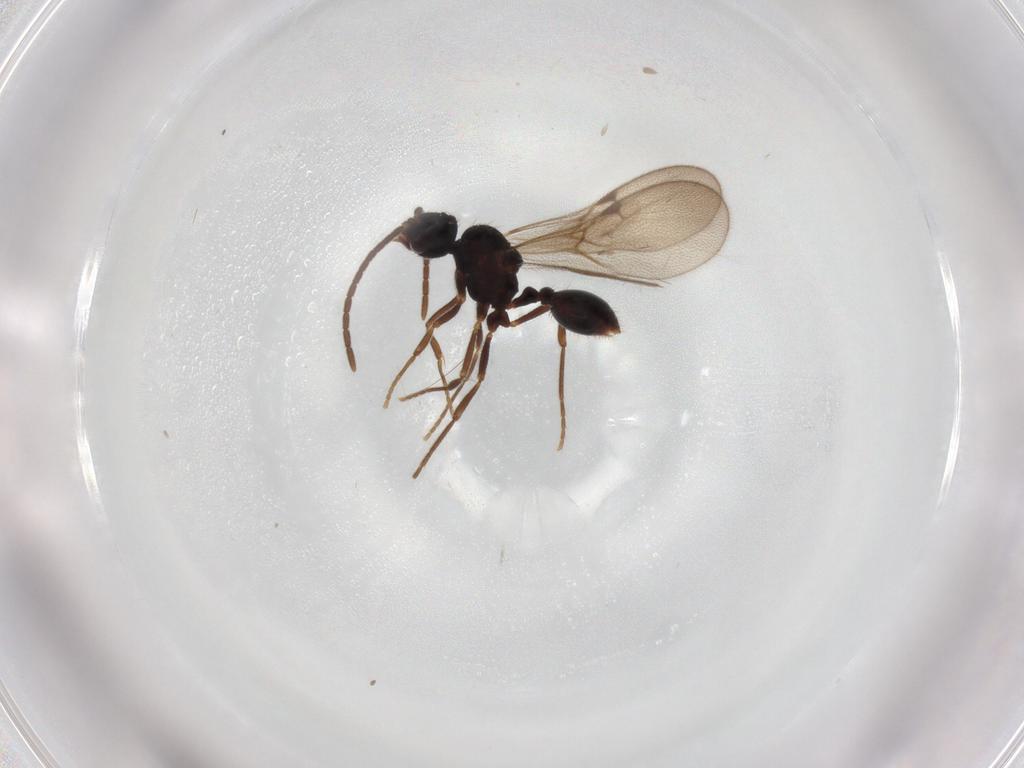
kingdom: Animalia
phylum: Arthropoda
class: Insecta
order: Hymenoptera
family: Formicidae
